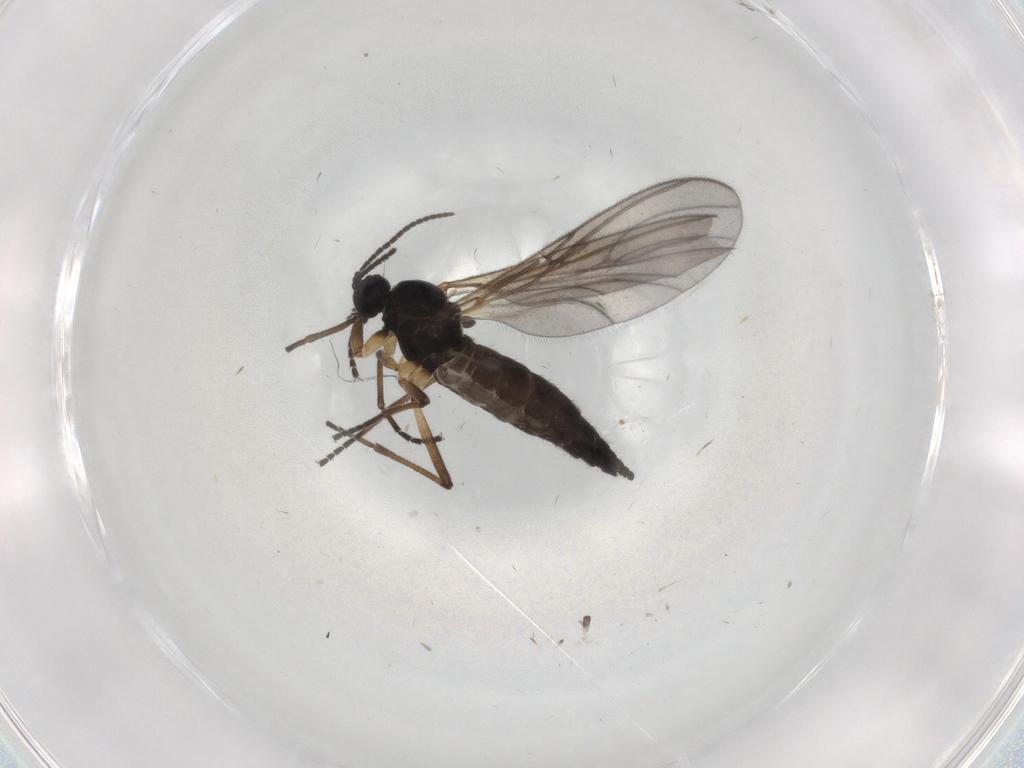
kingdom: Animalia
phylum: Arthropoda
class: Insecta
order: Diptera
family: Sciaridae
